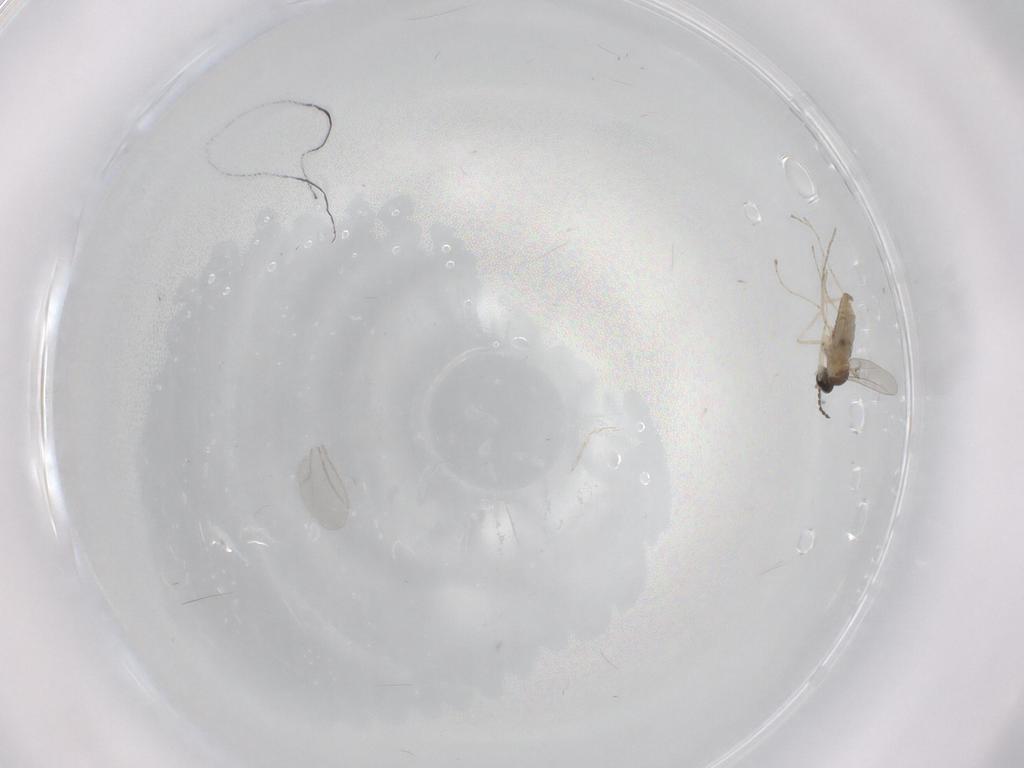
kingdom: Animalia
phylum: Arthropoda
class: Insecta
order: Diptera
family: Cecidomyiidae
